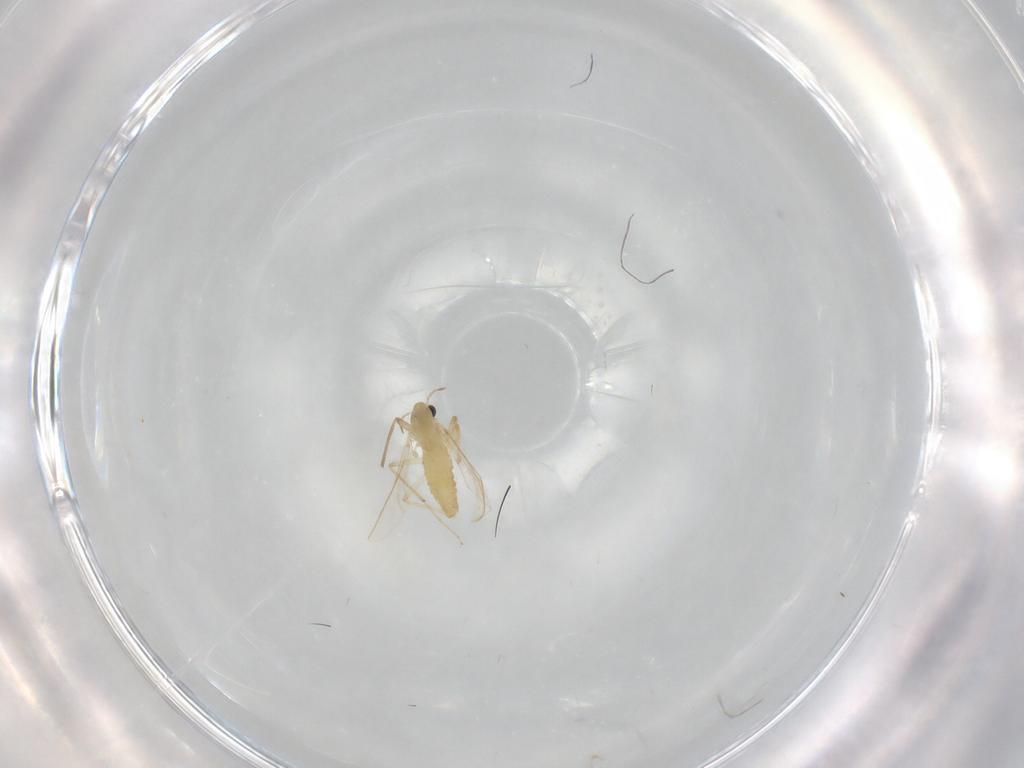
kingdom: Animalia
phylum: Arthropoda
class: Insecta
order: Diptera
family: Chironomidae
